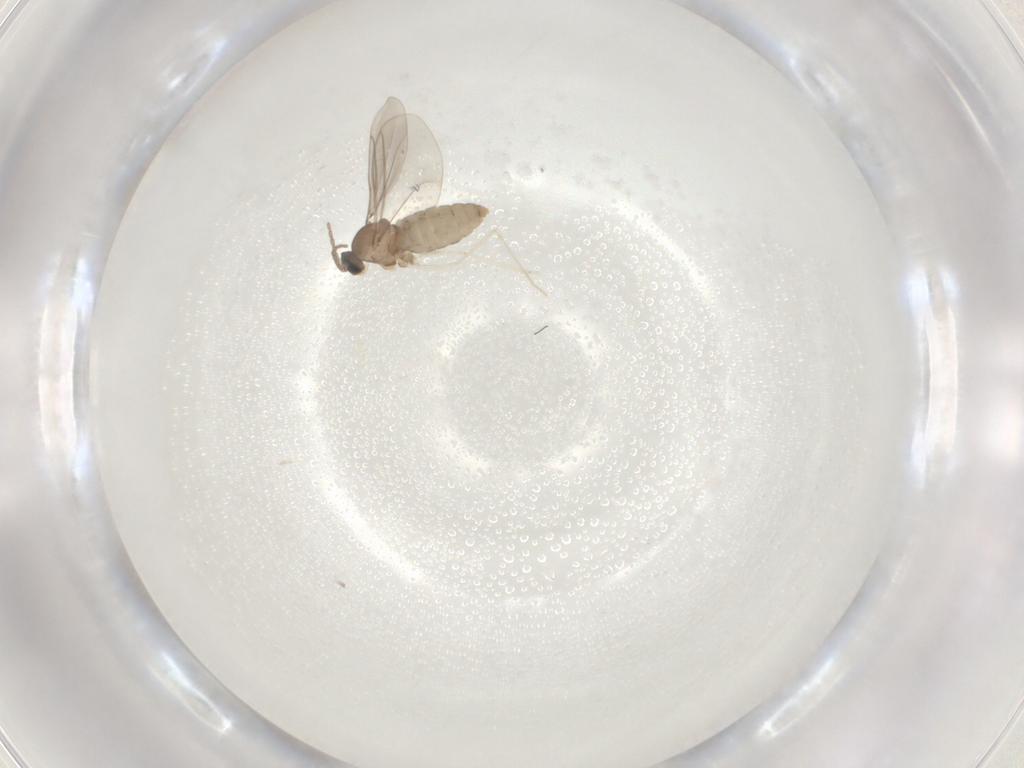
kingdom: Animalia
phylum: Arthropoda
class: Insecta
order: Diptera
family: Cecidomyiidae
